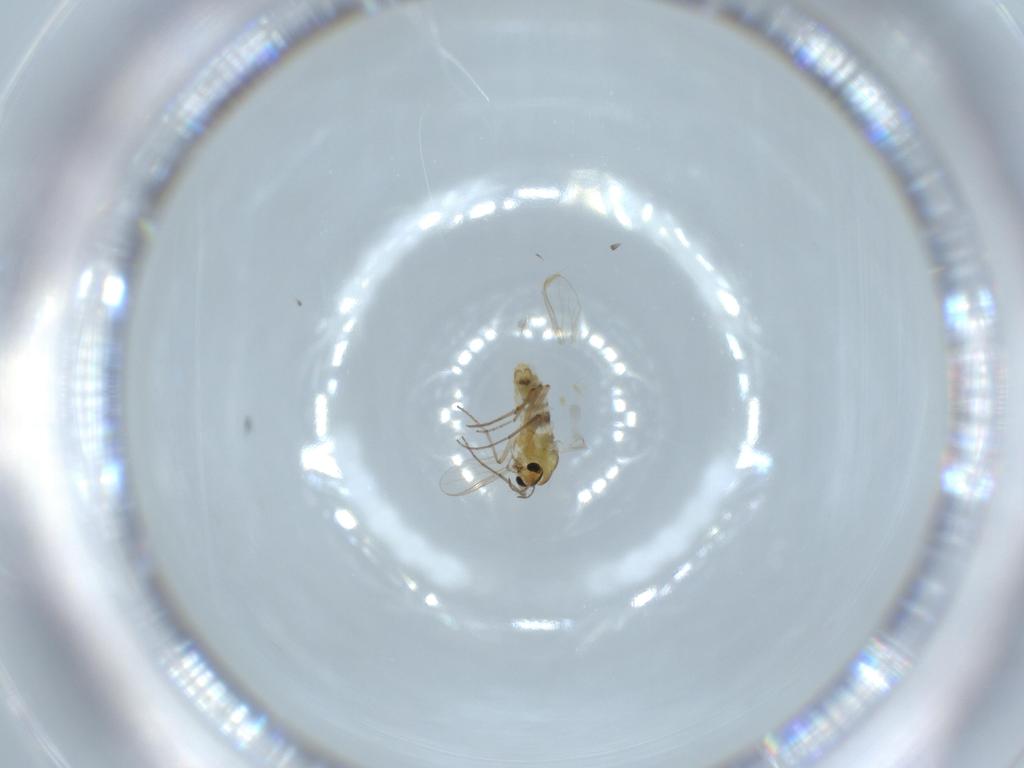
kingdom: Animalia
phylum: Arthropoda
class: Insecta
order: Diptera
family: Chironomidae
